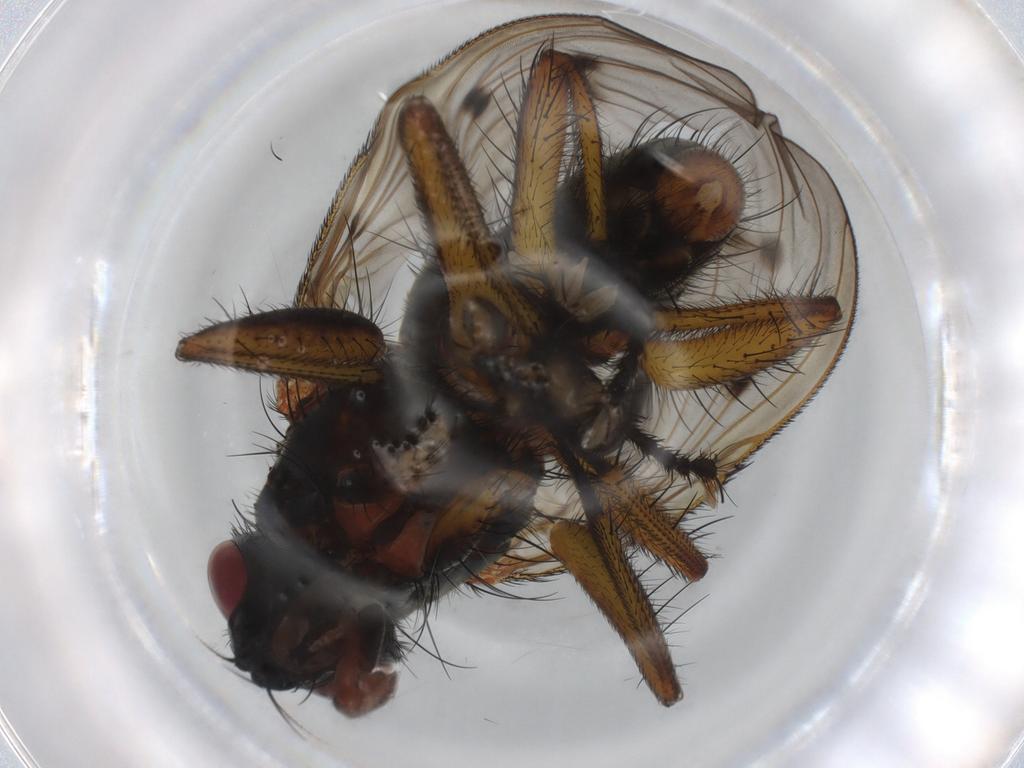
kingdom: Animalia
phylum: Arthropoda
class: Insecta
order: Diptera
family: Muscidae
